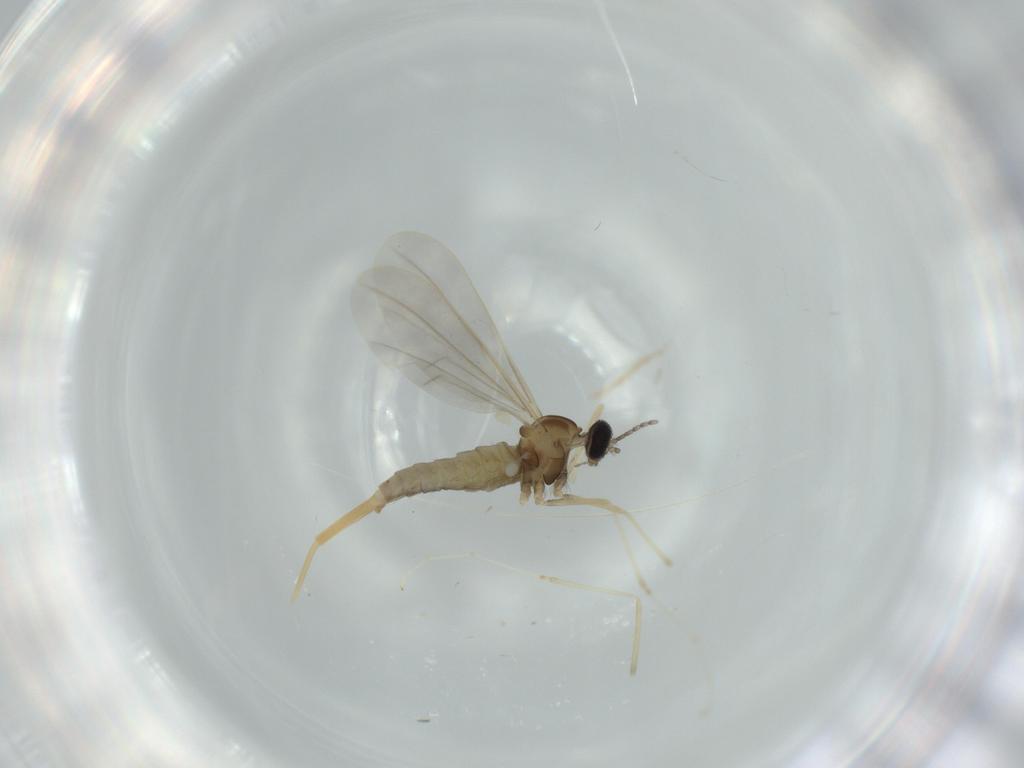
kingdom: Animalia
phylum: Arthropoda
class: Insecta
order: Diptera
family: Cecidomyiidae
